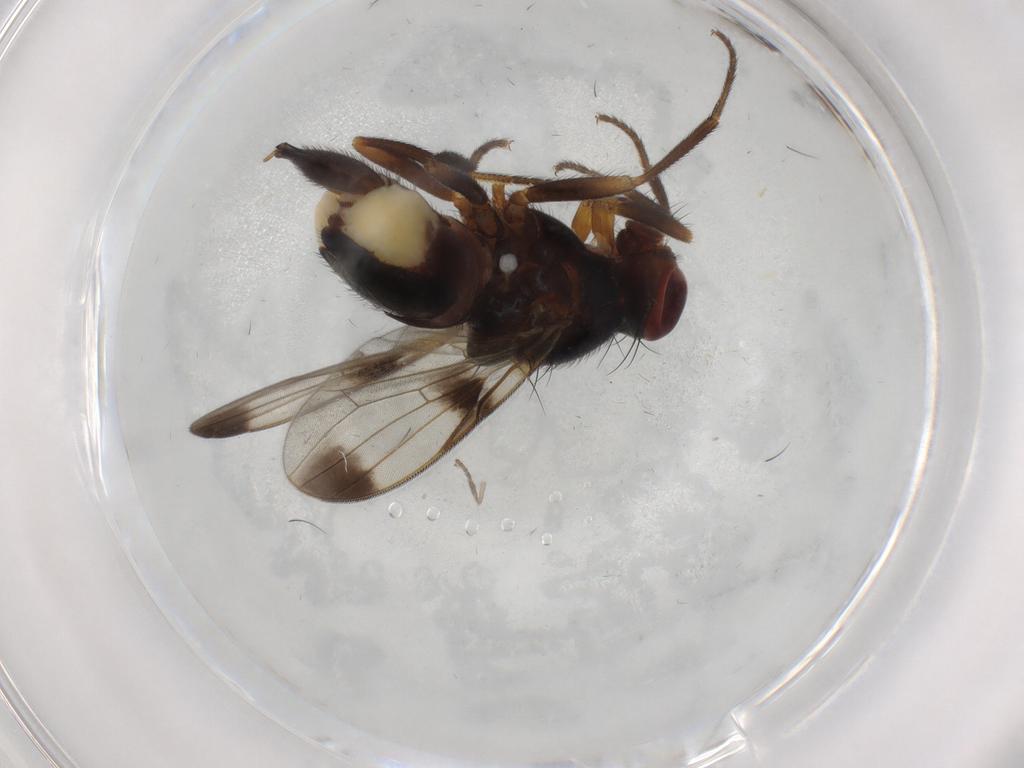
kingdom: Animalia
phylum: Arthropoda
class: Insecta
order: Diptera
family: Ulidiidae
